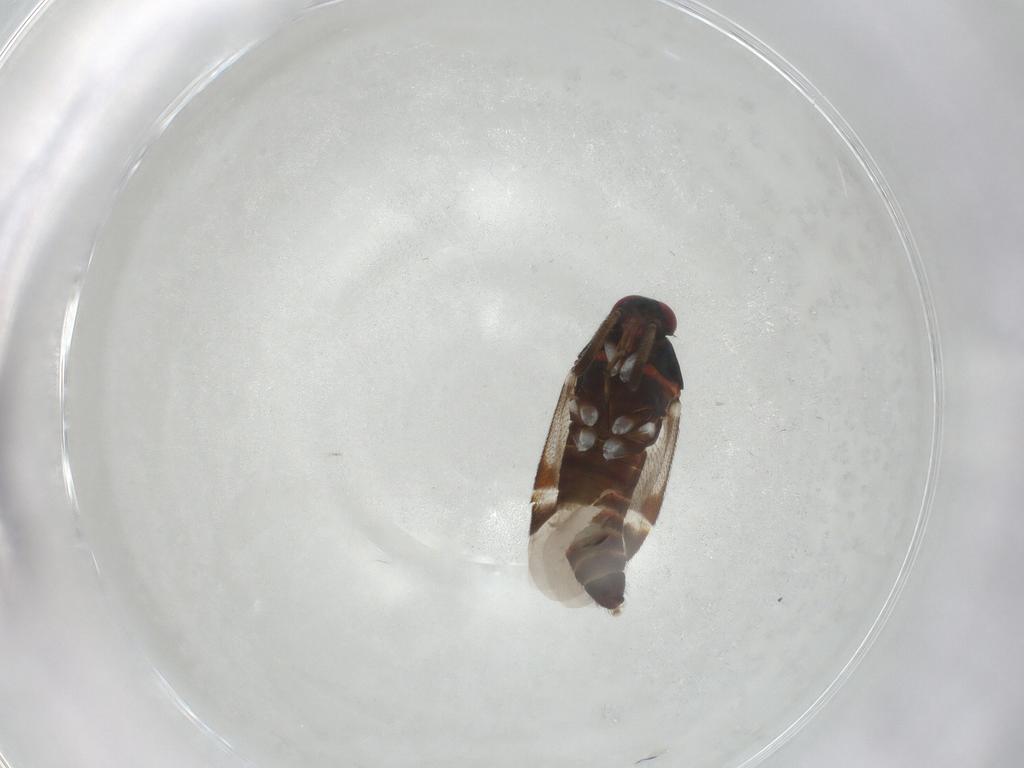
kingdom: Animalia
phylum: Arthropoda
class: Insecta
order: Hemiptera
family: Miridae
